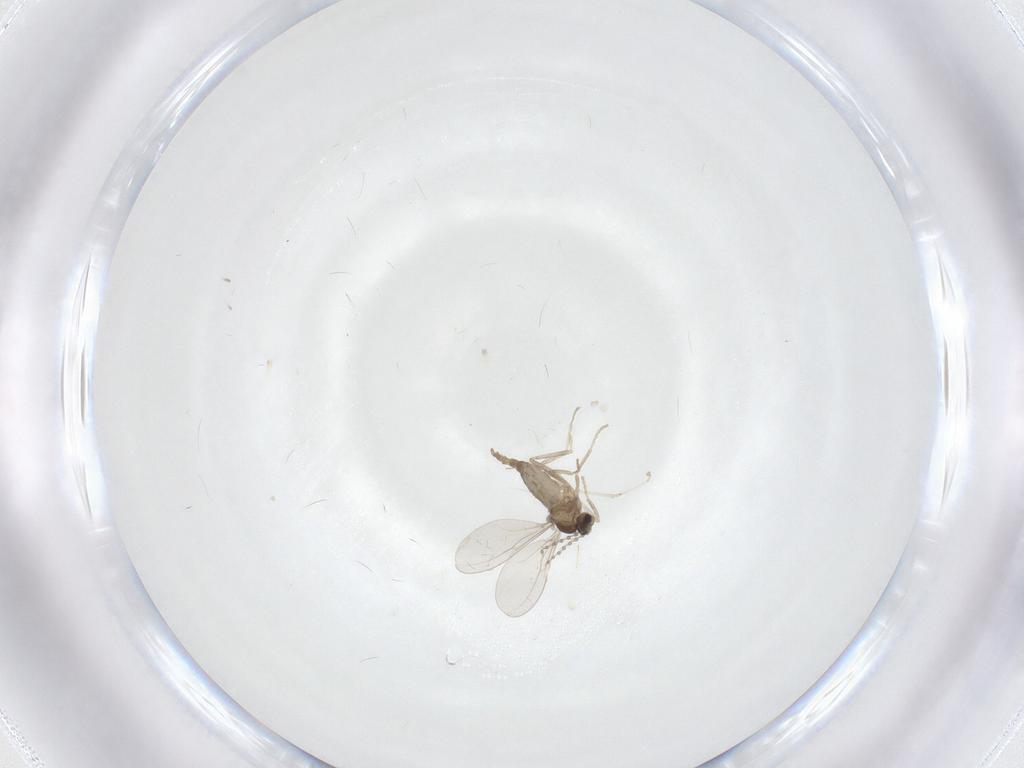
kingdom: Animalia
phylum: Arthropoda
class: Insecta
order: Diptera
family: Cecidomyiidae
